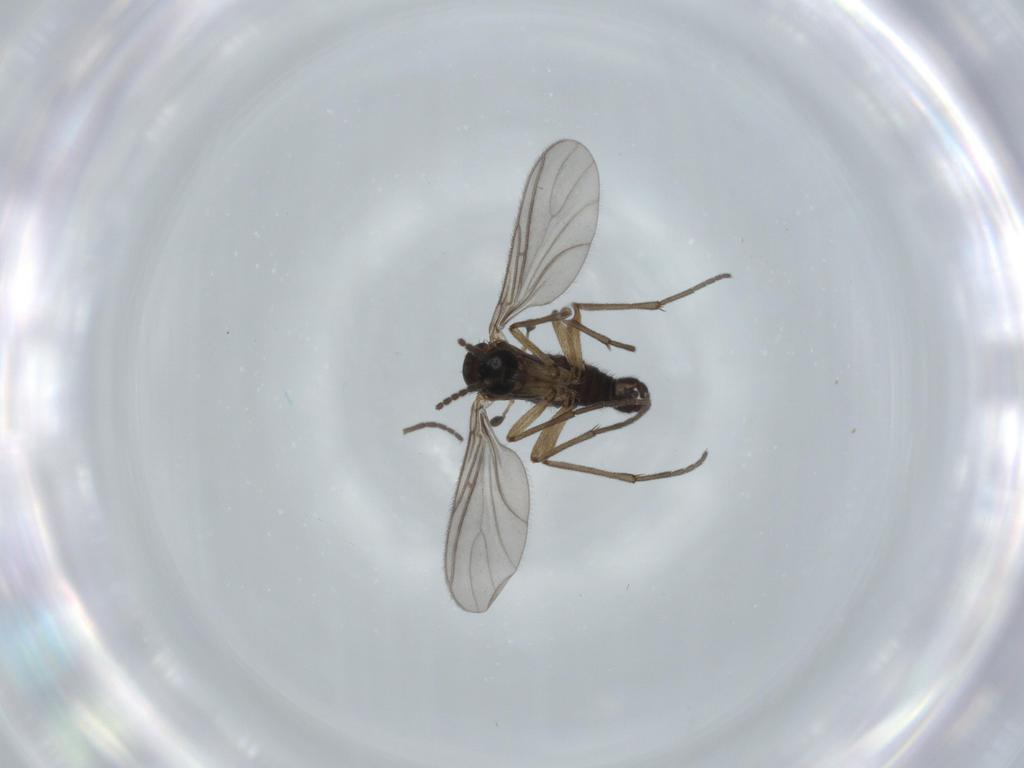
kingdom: Animalia
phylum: Arthropoda
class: Insecta
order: Diptera
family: Sciaridae
